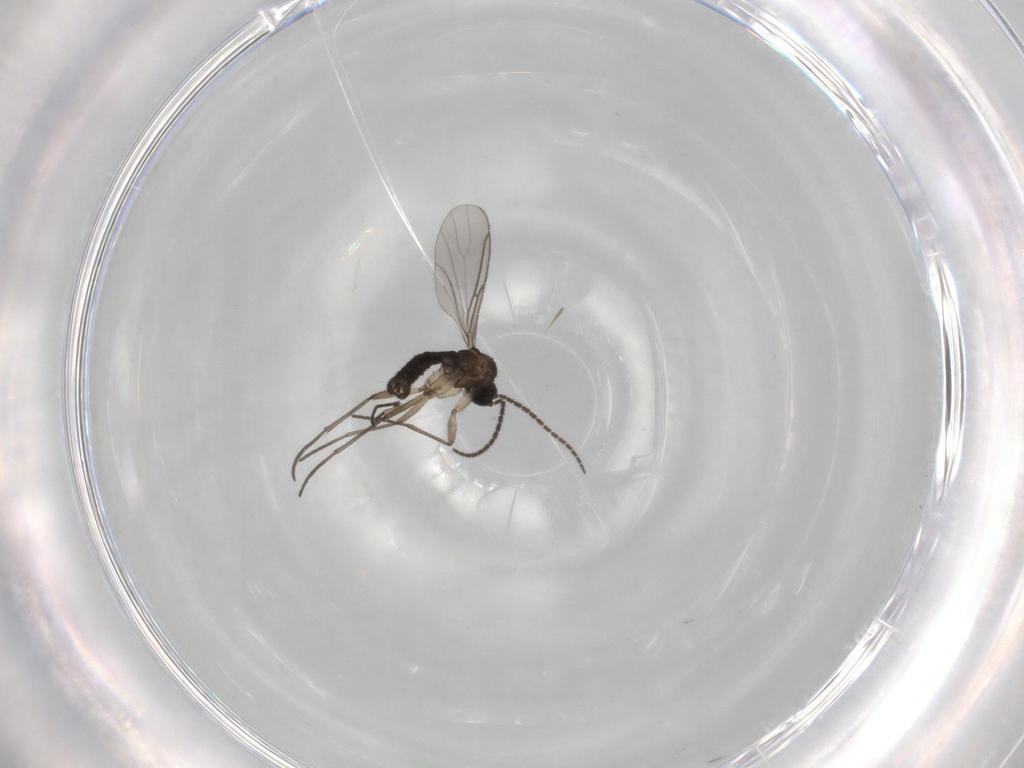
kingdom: Animalia
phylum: Arthropoda
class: Insecta
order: Diptera
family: Sciaridae
